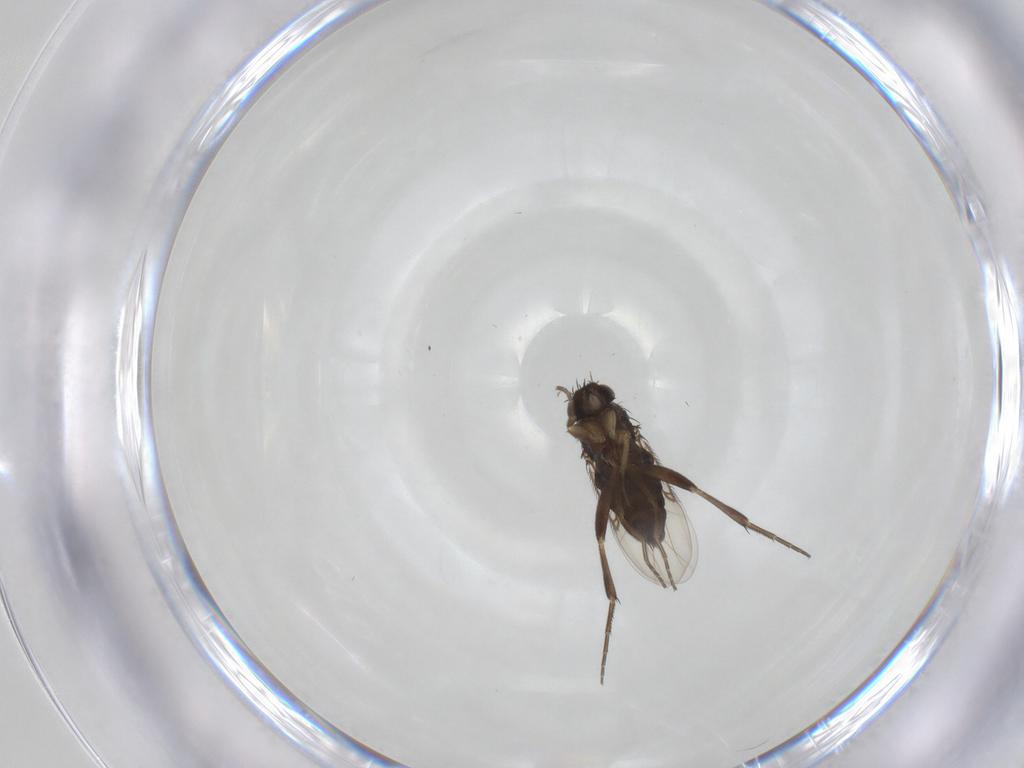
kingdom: Animalia
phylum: Arthropoda
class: Insecta
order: Diptera
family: Phoridae
